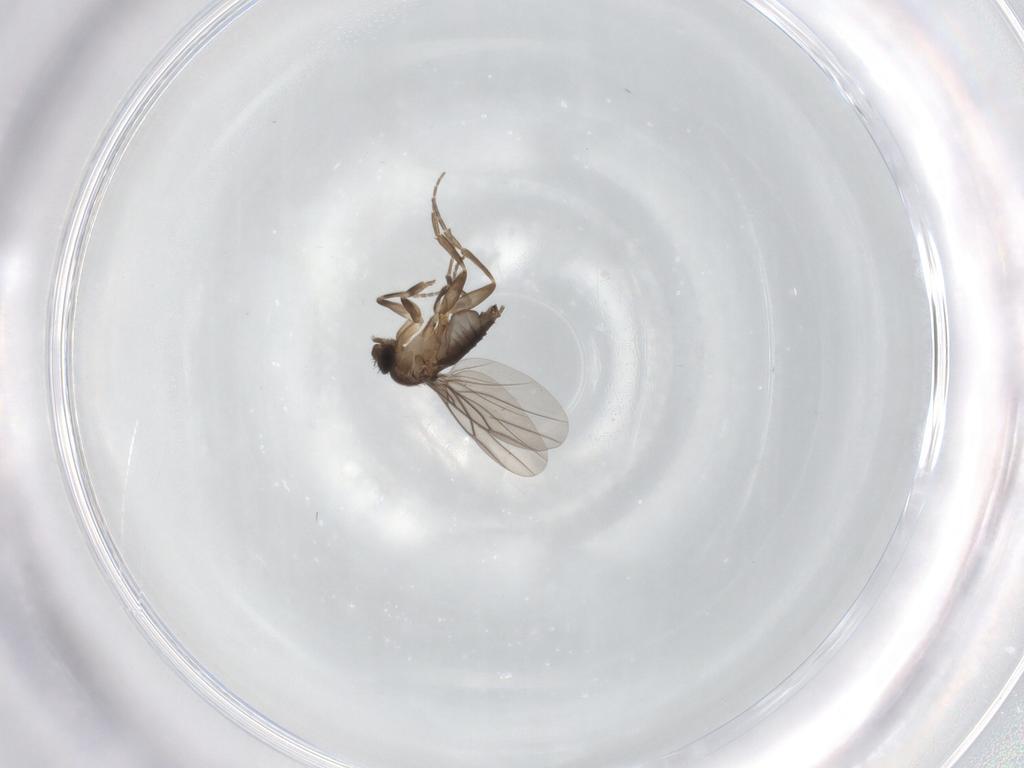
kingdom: Animalia
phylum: Arthropoda
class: Insecta
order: Diptera
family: Phoridae
